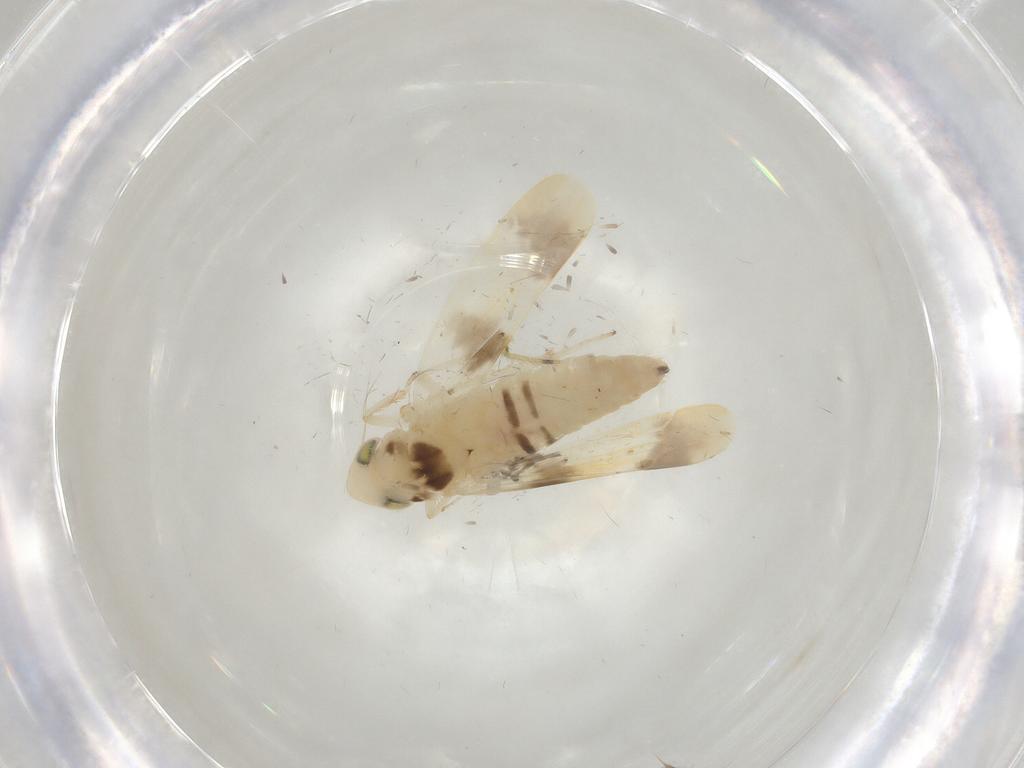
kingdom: Animalia
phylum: Arthropoda
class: Insecta
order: Hemiptera
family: Cicadellidae
